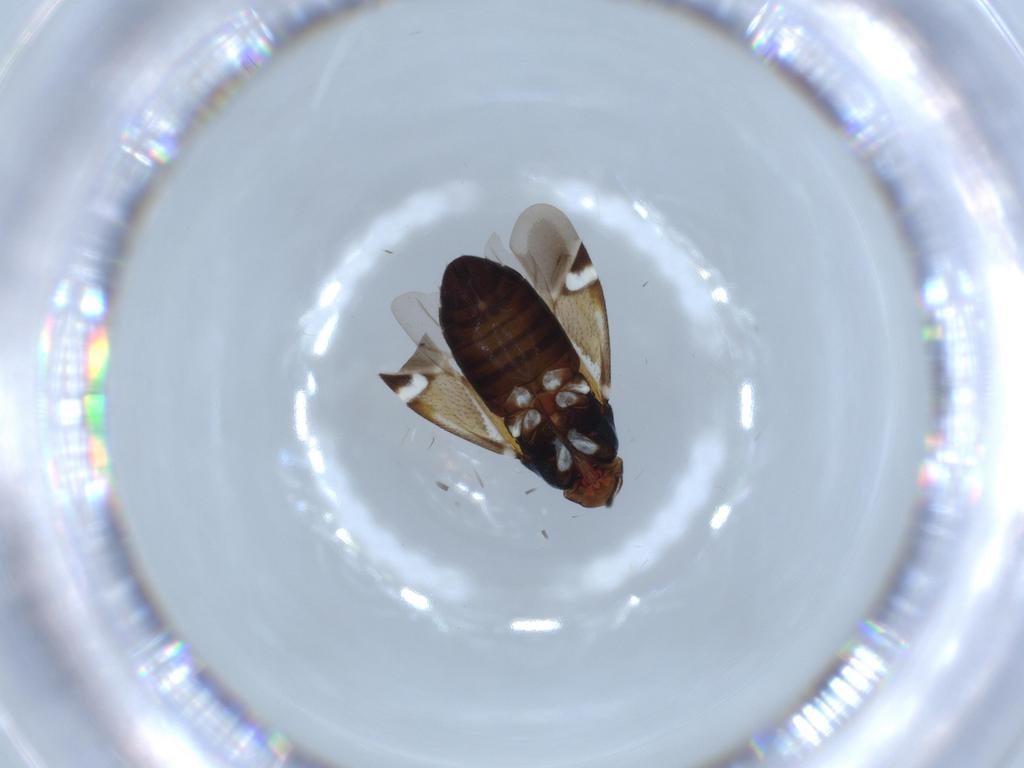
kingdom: Animalia
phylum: Arthropoda
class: Insecta
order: Hemiptera
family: Miridae
